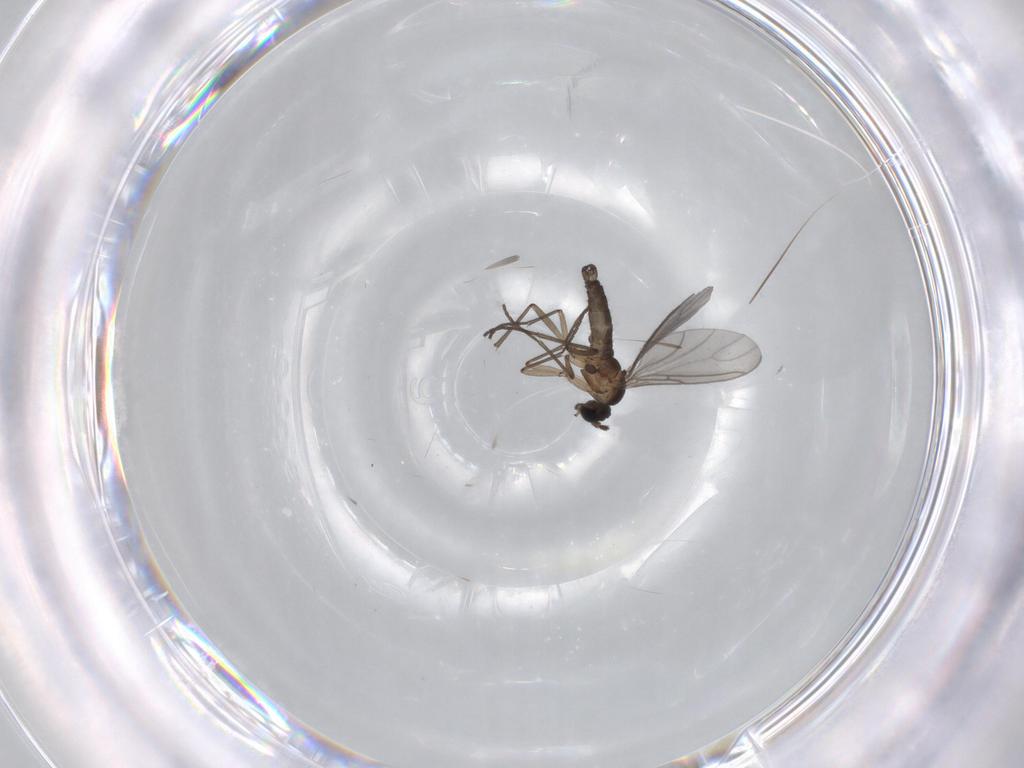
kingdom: Animalia
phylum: Arthropoda
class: Insecta
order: Diptera
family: Sciaridae
